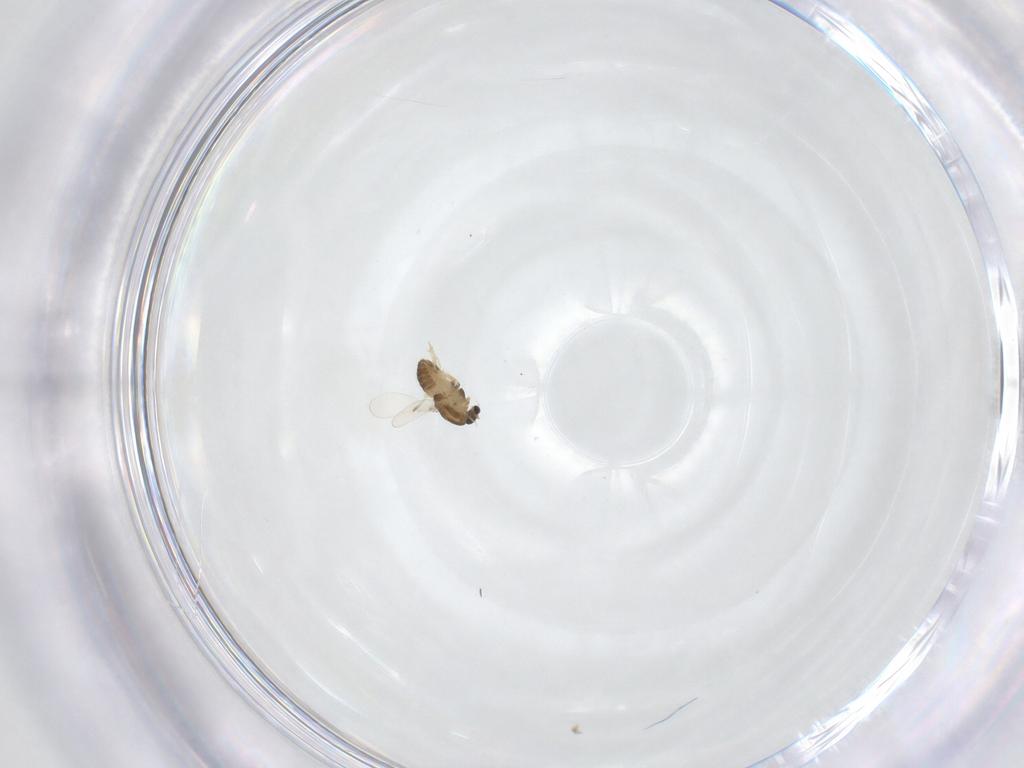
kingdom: Animalia
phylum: Arthropoda
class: Insecta
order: Diptera
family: Chironomidae
